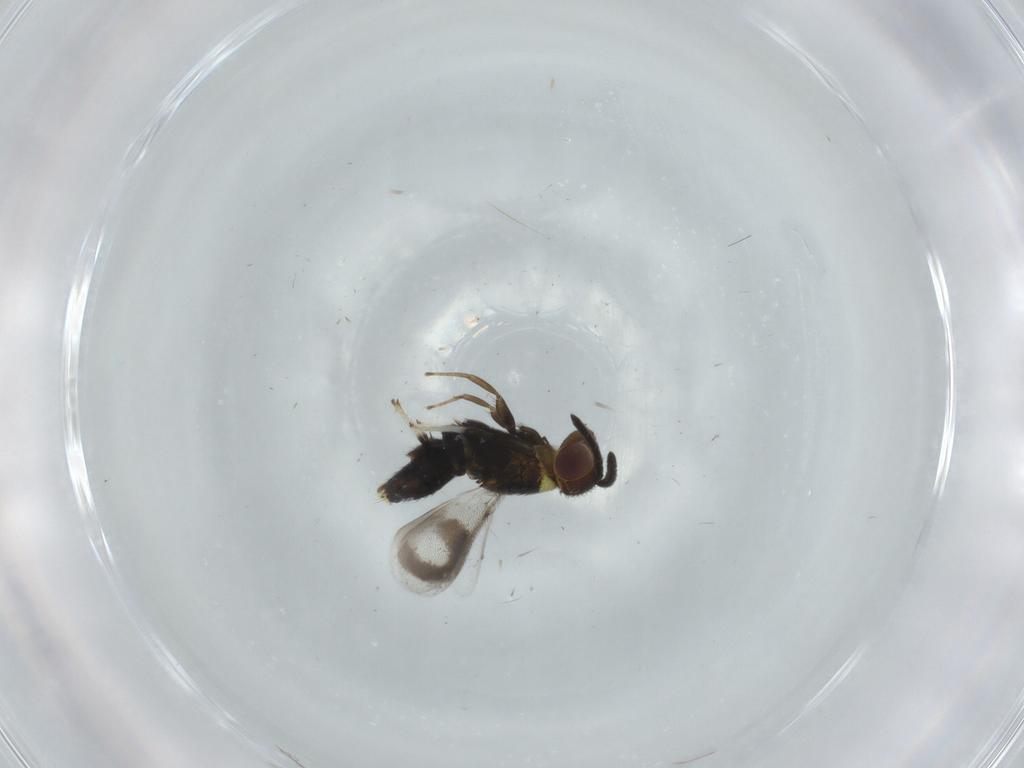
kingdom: Animalia
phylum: Arthropoda
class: Insecta
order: Hymenoptera
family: Aphelinidae
